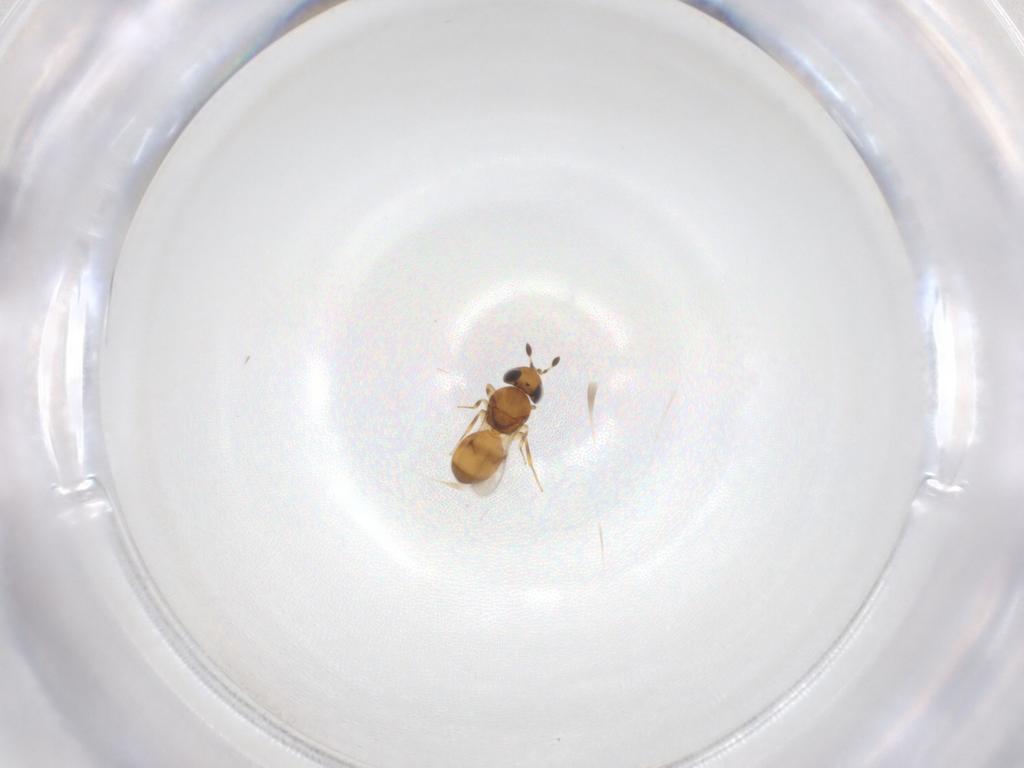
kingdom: Animalia
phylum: Arthropoda
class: Insecta
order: Hymenoptera
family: Scelionidae
